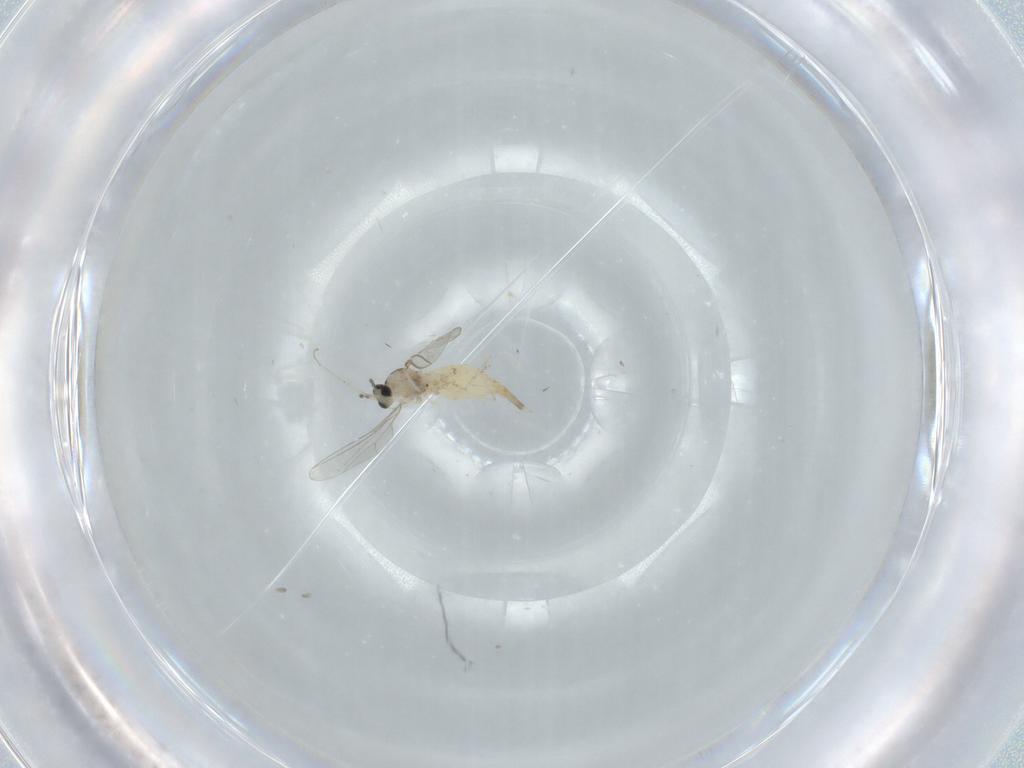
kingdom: Animalia
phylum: Arthropoda
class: Insecta
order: Diptera
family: Cecidomyiidae
